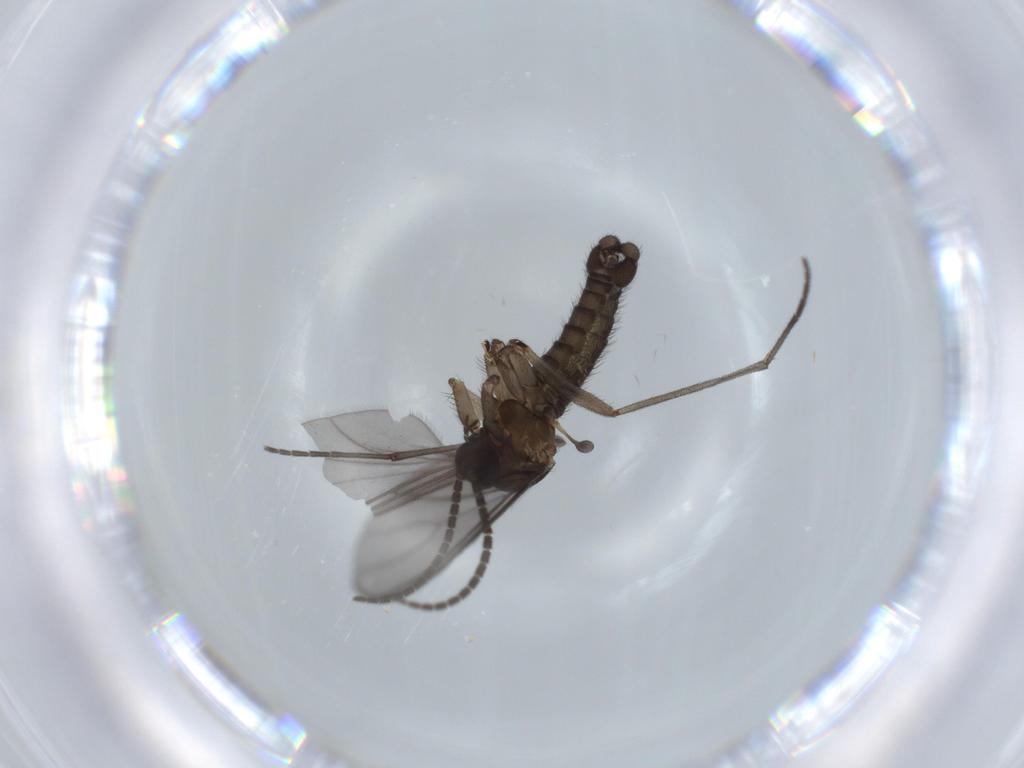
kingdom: Animalia
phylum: Arthropoda
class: Insecta
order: Diptera
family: Sciaridae
